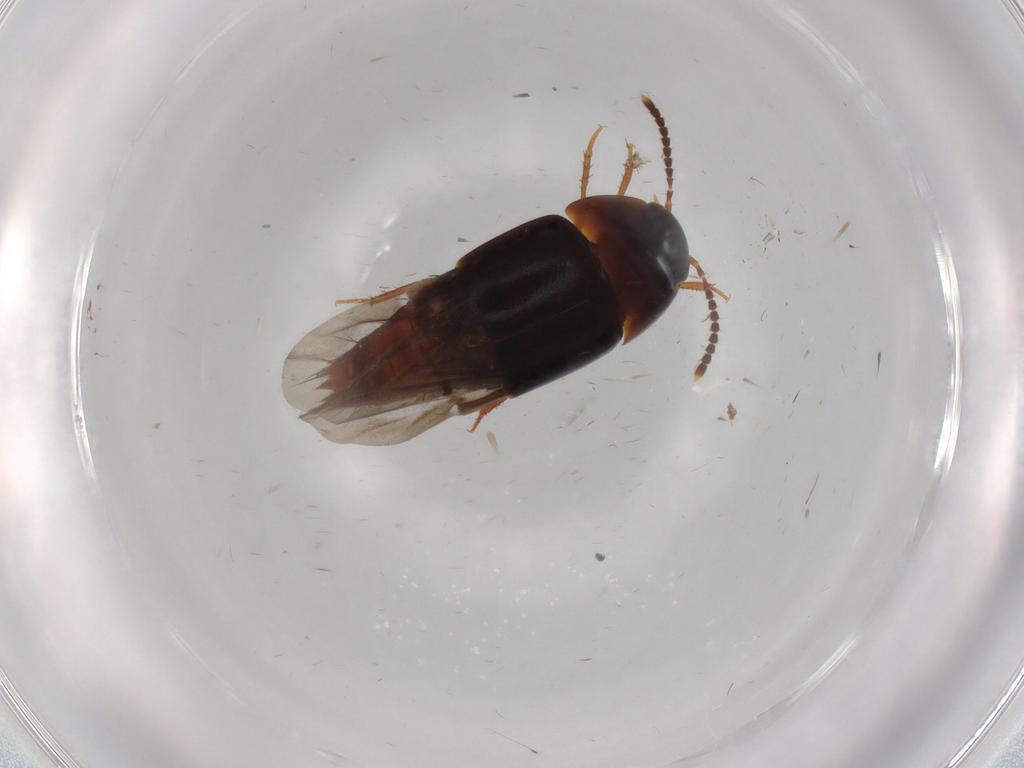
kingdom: Animalia
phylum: Arthropoda
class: Insecta
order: Coleoptera
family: Staphylinidae
